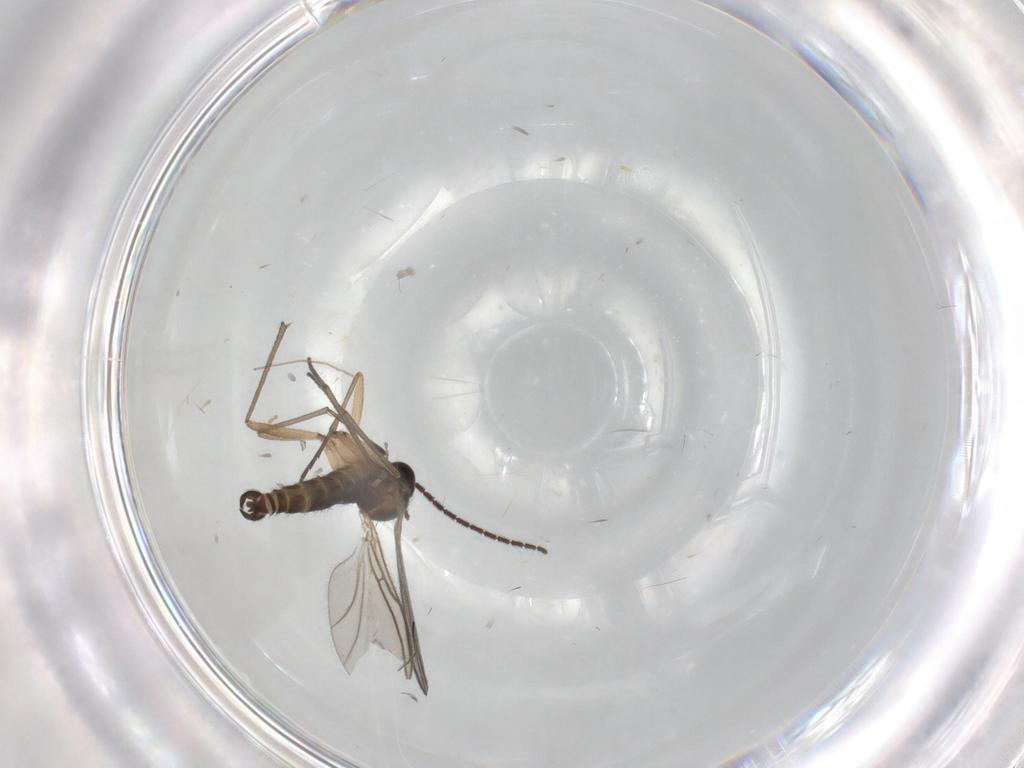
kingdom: Animalia
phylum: Arthropoda
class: Insecta
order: Diptera
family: Sciaridae
